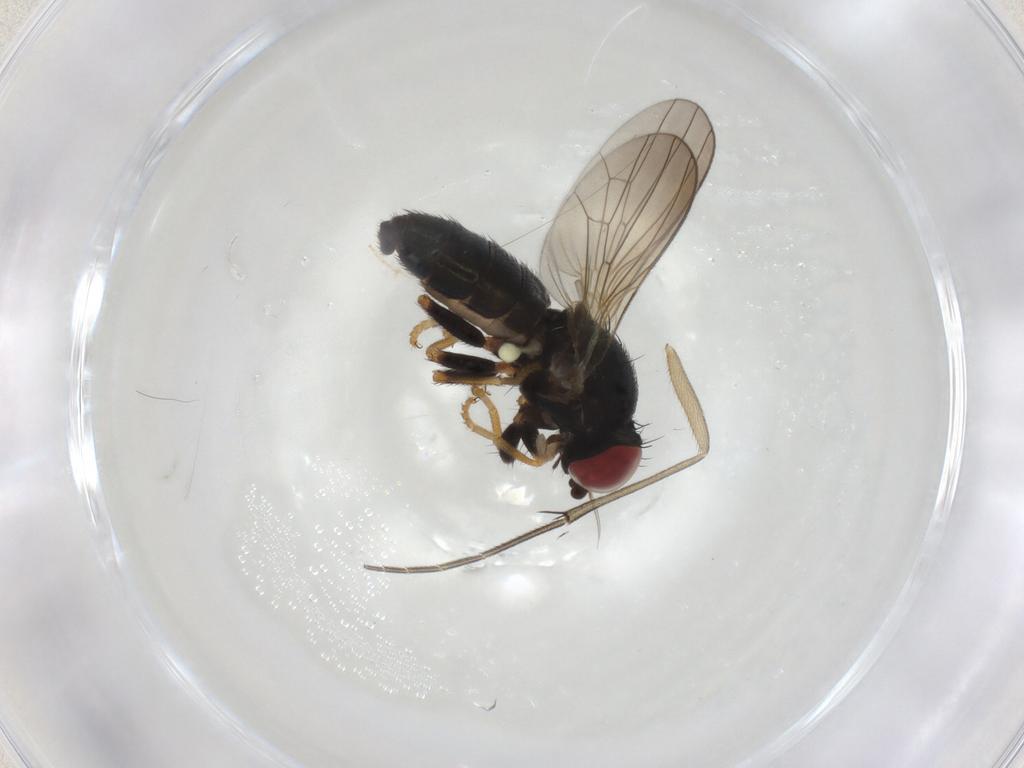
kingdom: Animalia
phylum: Arthropoda
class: Insecta
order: Diptera
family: Chamaemyiidae
